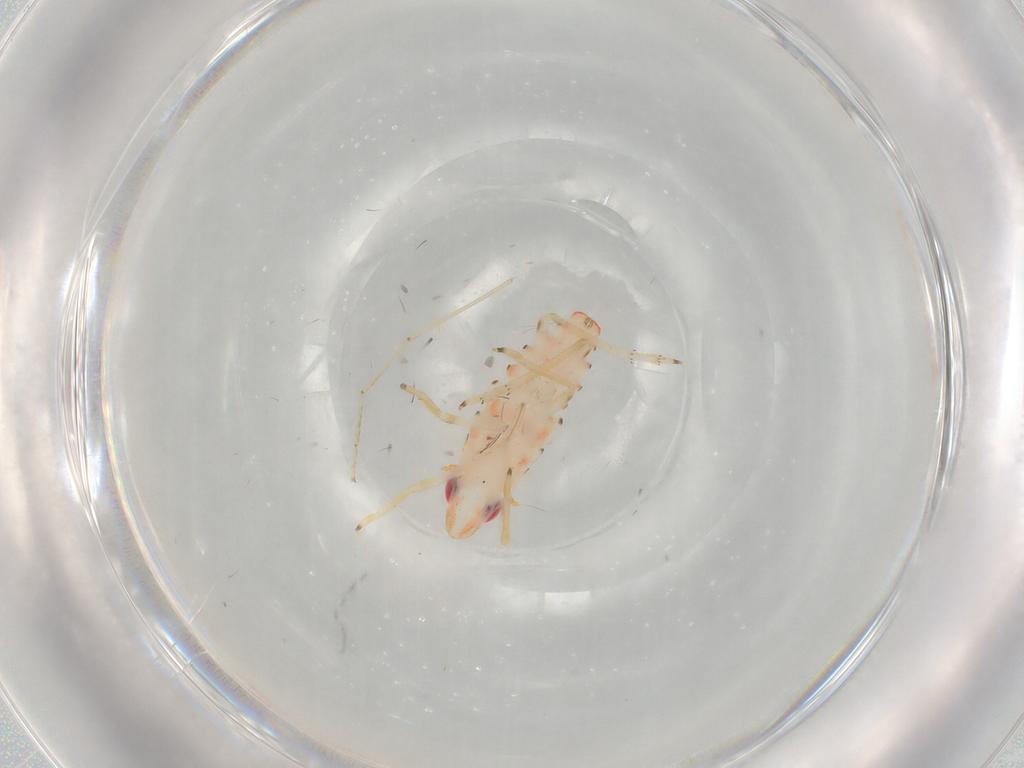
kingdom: Animalia
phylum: Arthropoda
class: Insecta
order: Hemiptera
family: Tropiduchidae
